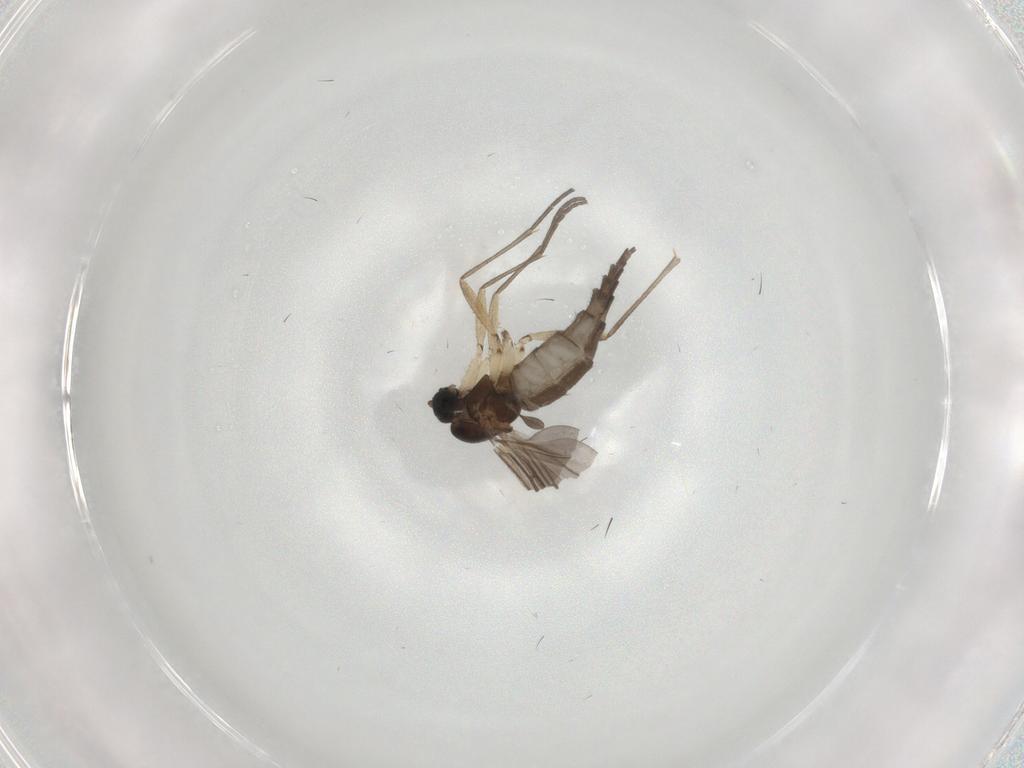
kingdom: Animalia
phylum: Arthropoda
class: Insecta
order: Diptera
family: Sciaridae
